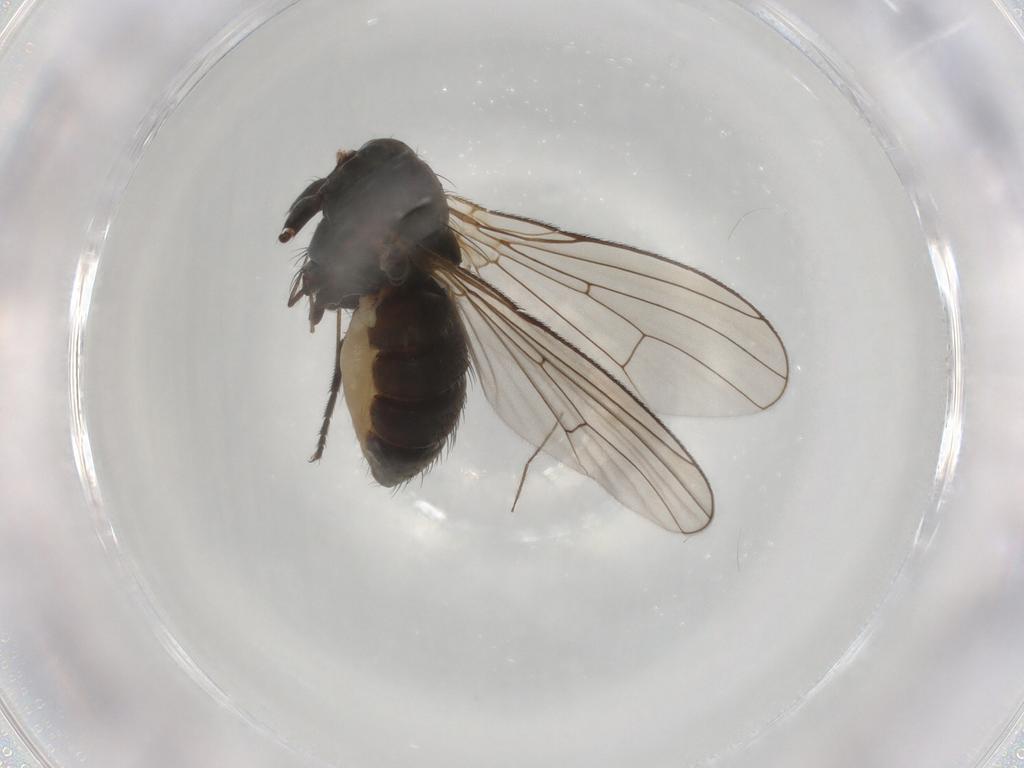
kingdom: Animalia
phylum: Arthropoda
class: Insecta
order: Diptera
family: Muscidae
